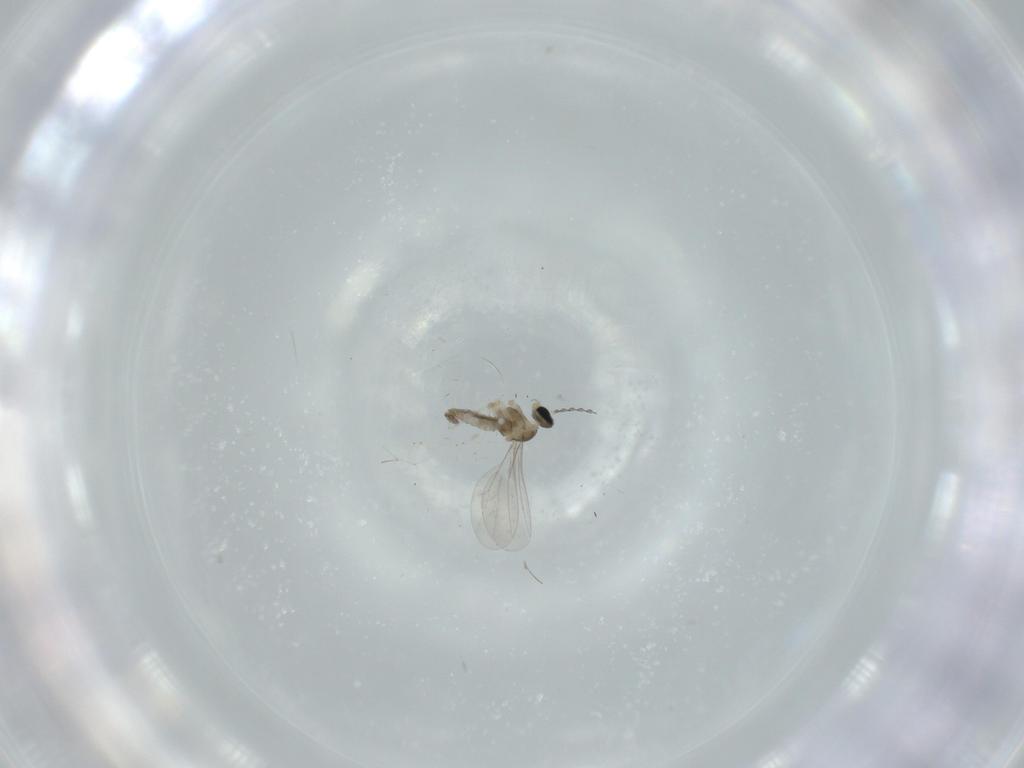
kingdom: Animalia
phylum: Arthropoda
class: Insecta
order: Diptera
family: Cecidomyiidae
